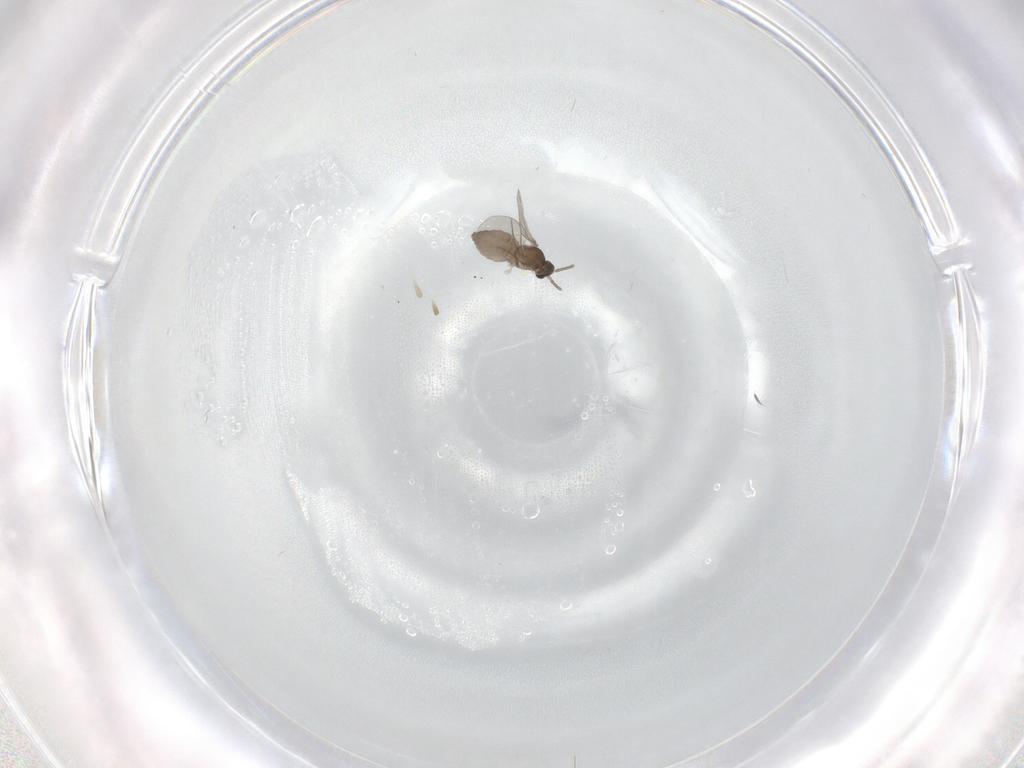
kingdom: Animalia
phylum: Arthropoda
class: Insecta
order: Diptera
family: Cecidomyiidae
